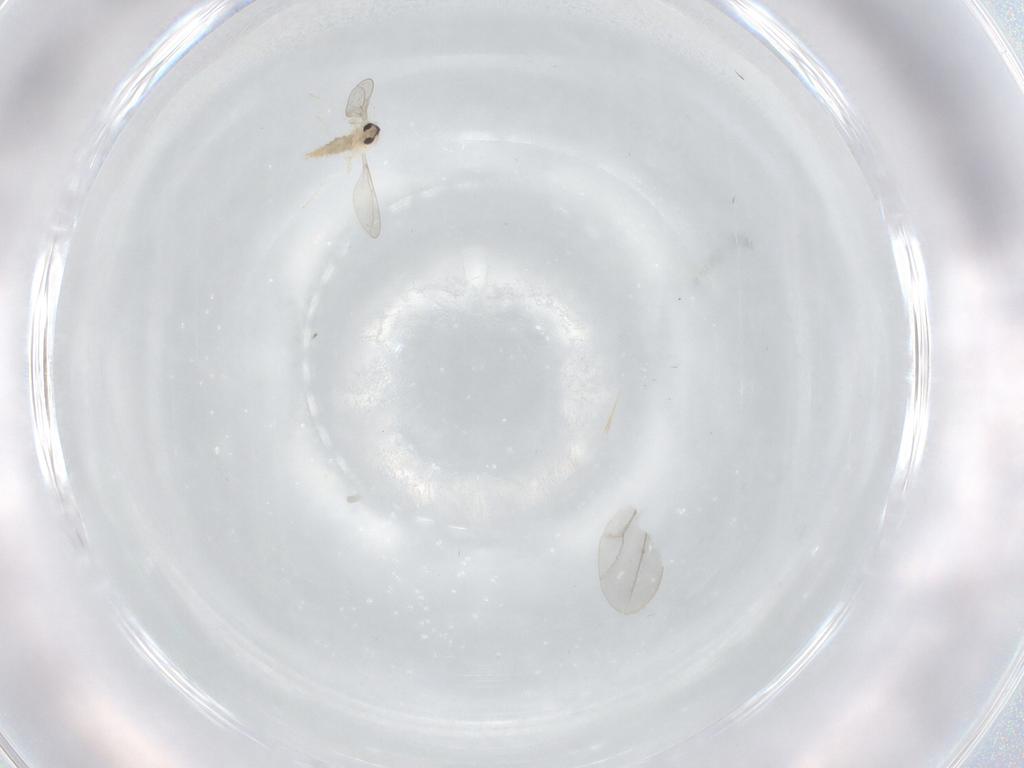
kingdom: Animalia
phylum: Arthropoda
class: Insecta
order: Diptera
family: Cecidomyiidae
